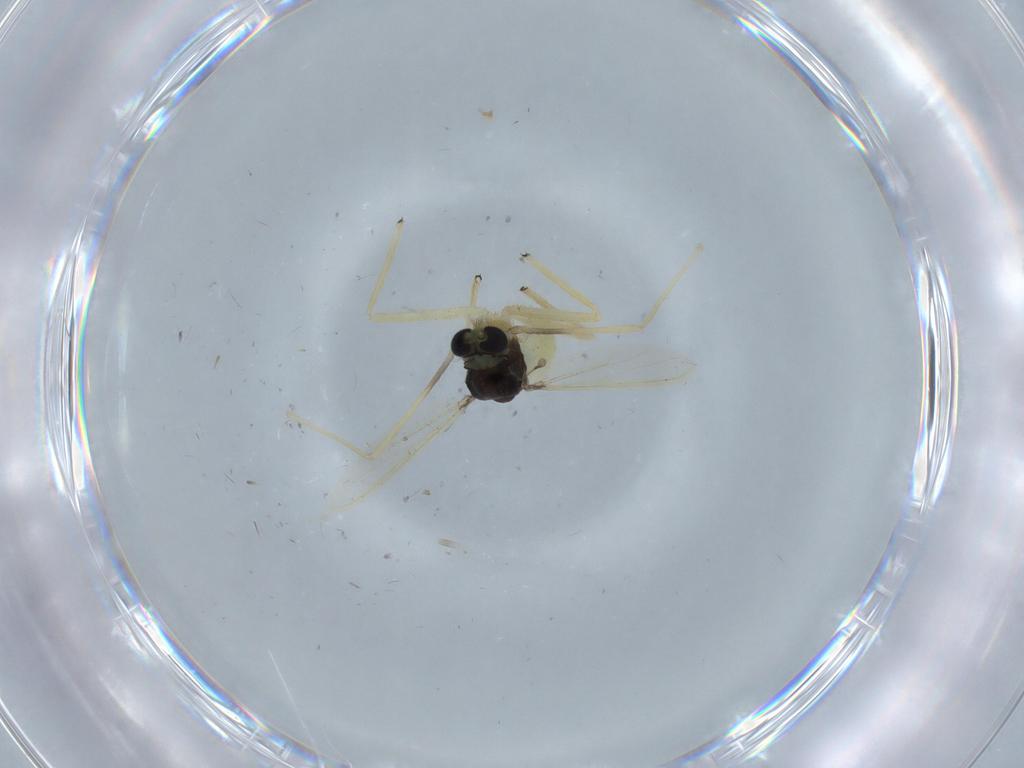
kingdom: Animalia
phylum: Arthropoda
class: Insecta
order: Diptera
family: Chironomidae
